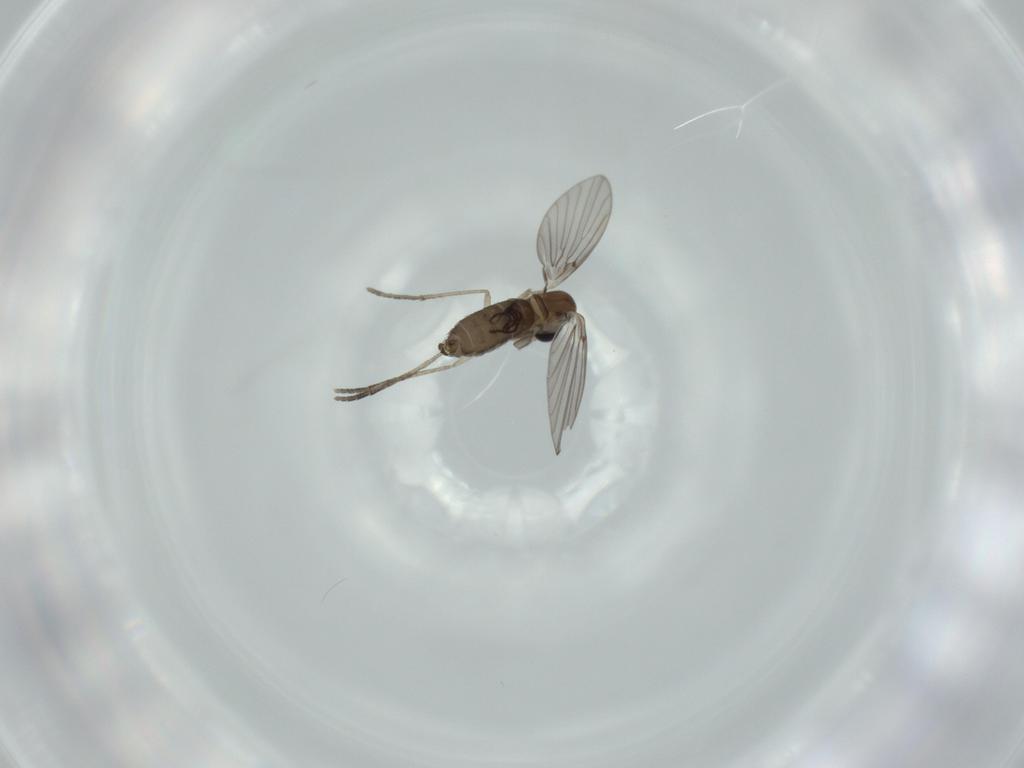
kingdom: Animalia
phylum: Arthropoda
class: Insecta
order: Diptera
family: Psychodidae
